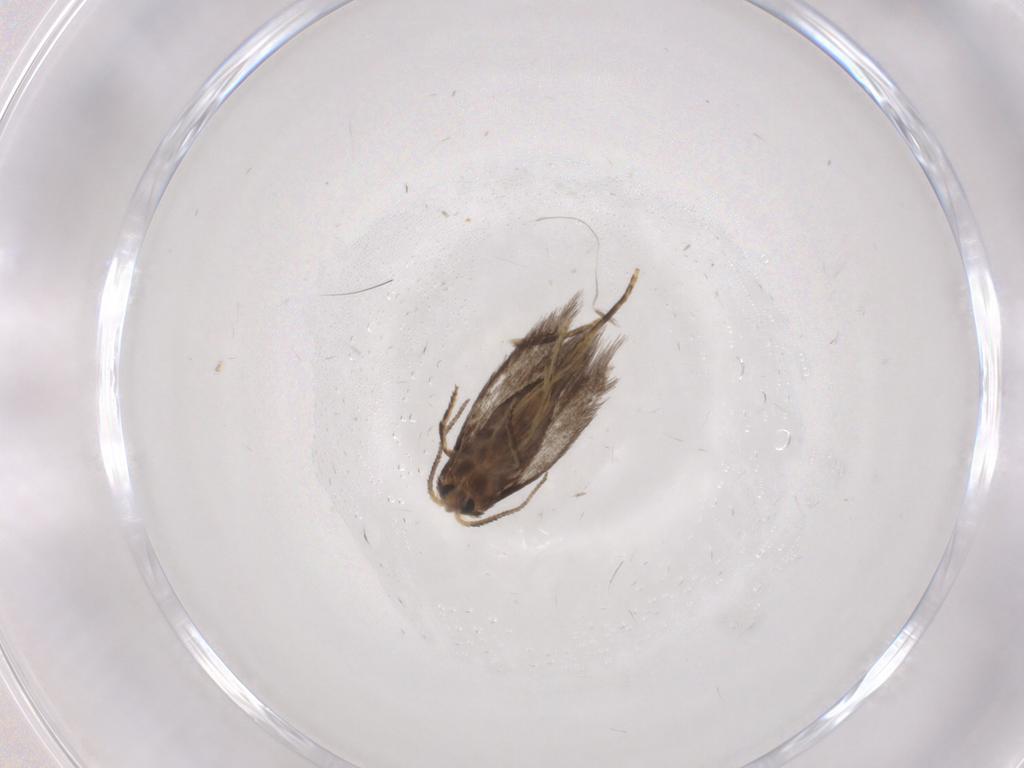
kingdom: Animalia
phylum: Arthropoda
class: Insecta
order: Lepidoptera
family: Nepticulidae
